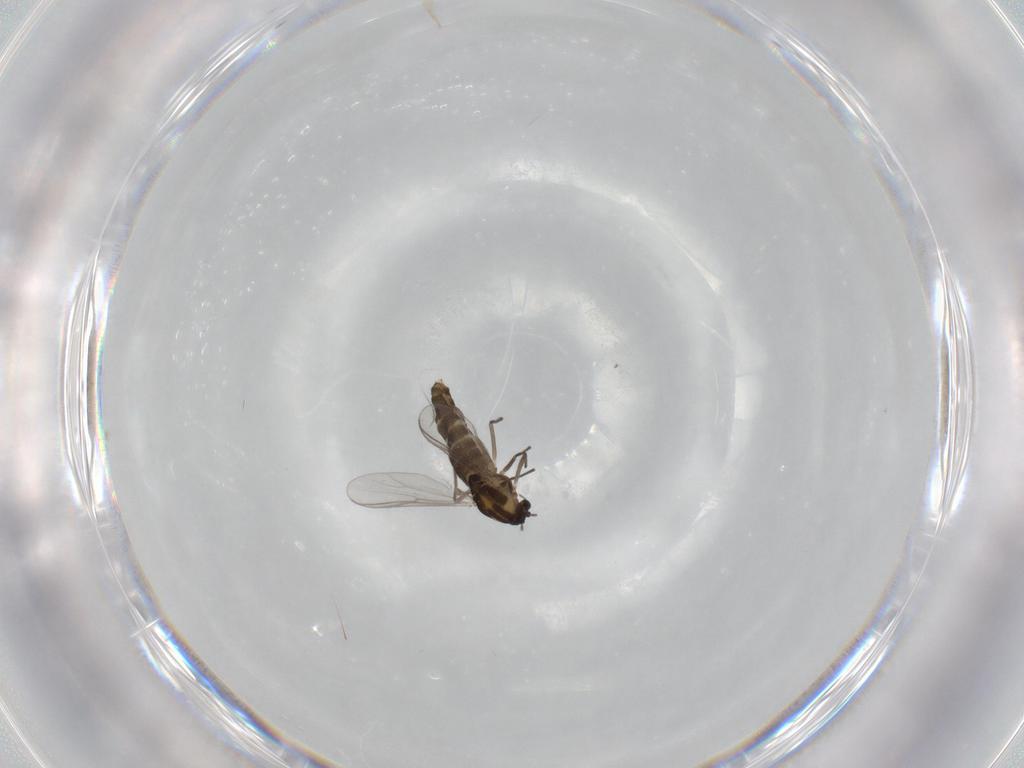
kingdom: Animalia
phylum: Arthropoda
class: Insecta
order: Diptera
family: Chironomidae
